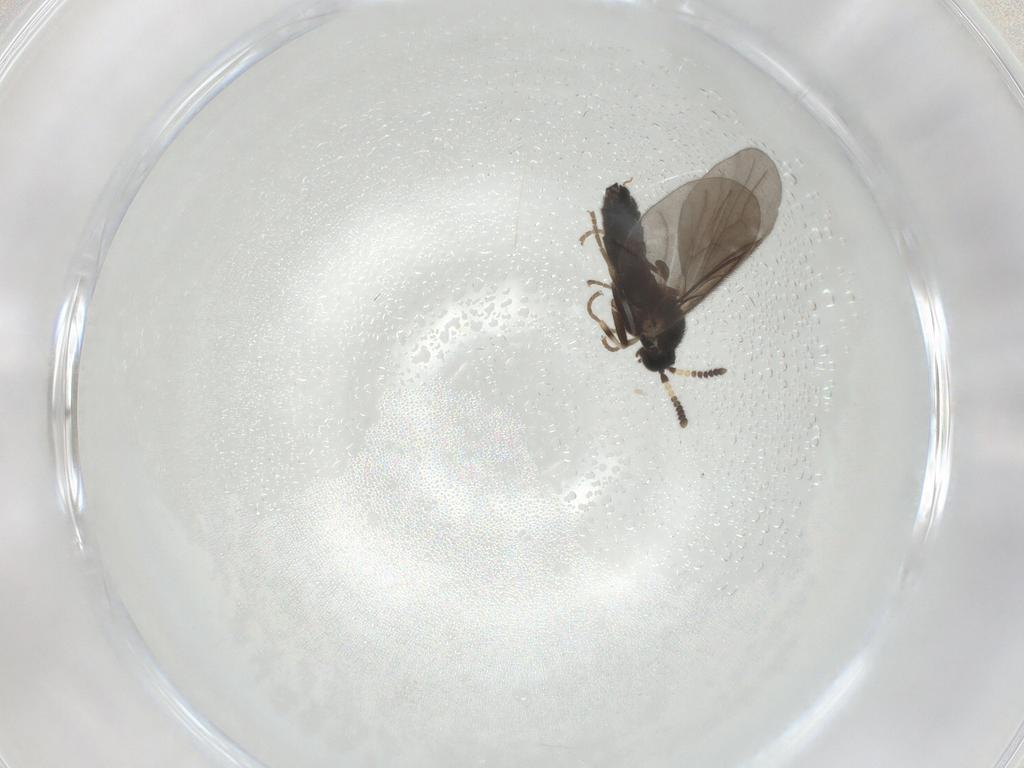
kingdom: Animalia
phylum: Arthropoda
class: Insecta
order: Diptera
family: Scatopsidae
